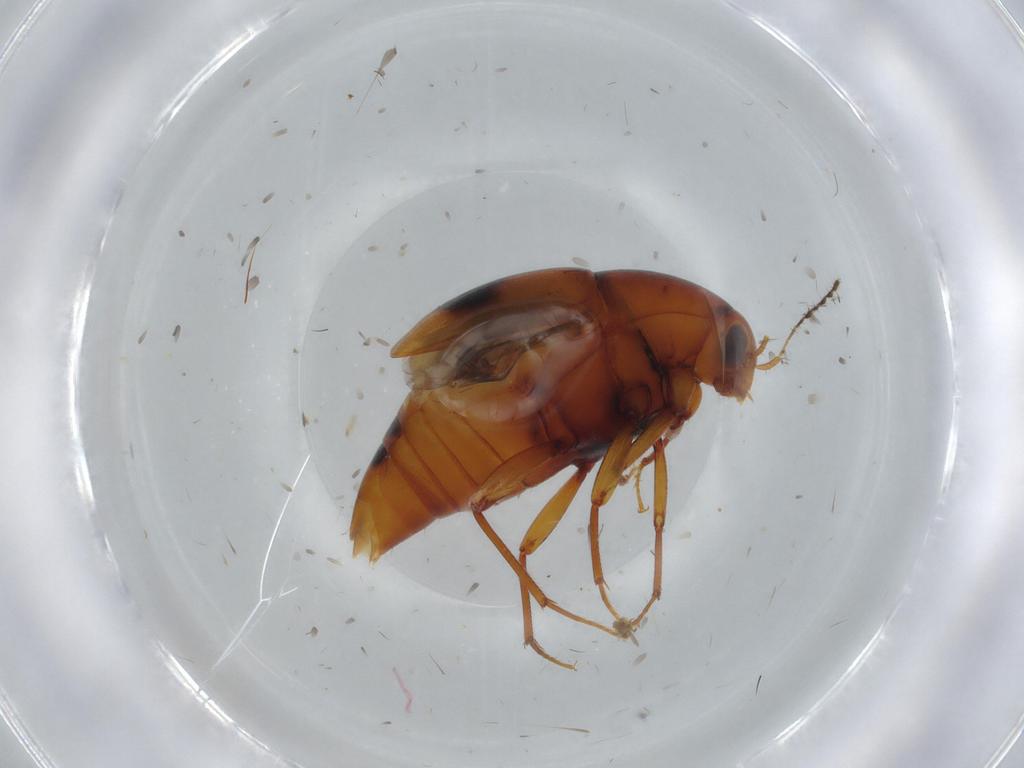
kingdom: Animalia
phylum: Arthropoda
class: Insecta
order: Coleoptera
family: Staphylinidae
